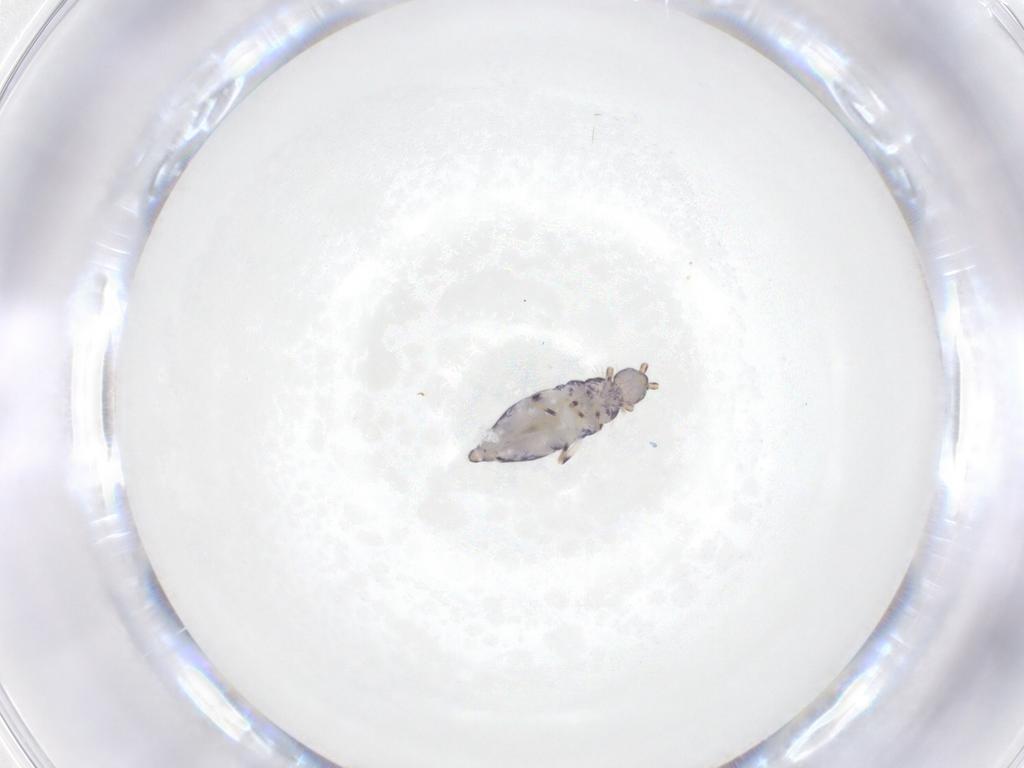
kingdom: Animalia
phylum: Arthropoda
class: Collembola
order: Entomobryomorpha
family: Entomobryidae
